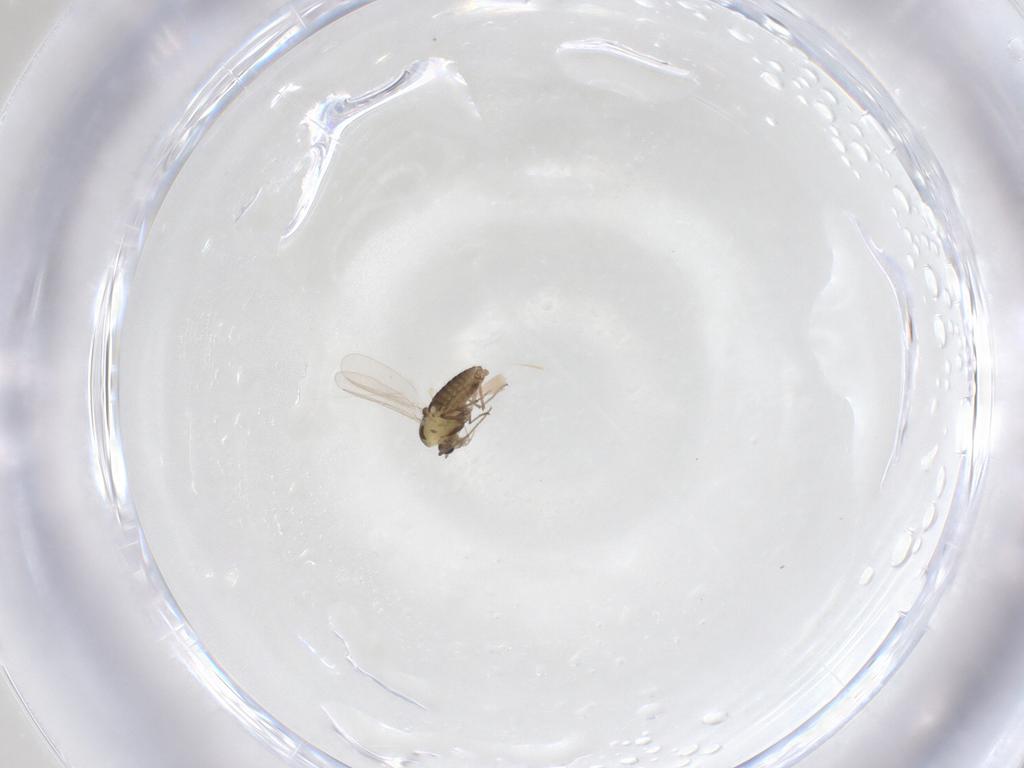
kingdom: Animalia
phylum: Arthropoda
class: Insecta
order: Diptera
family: Chironomidae
